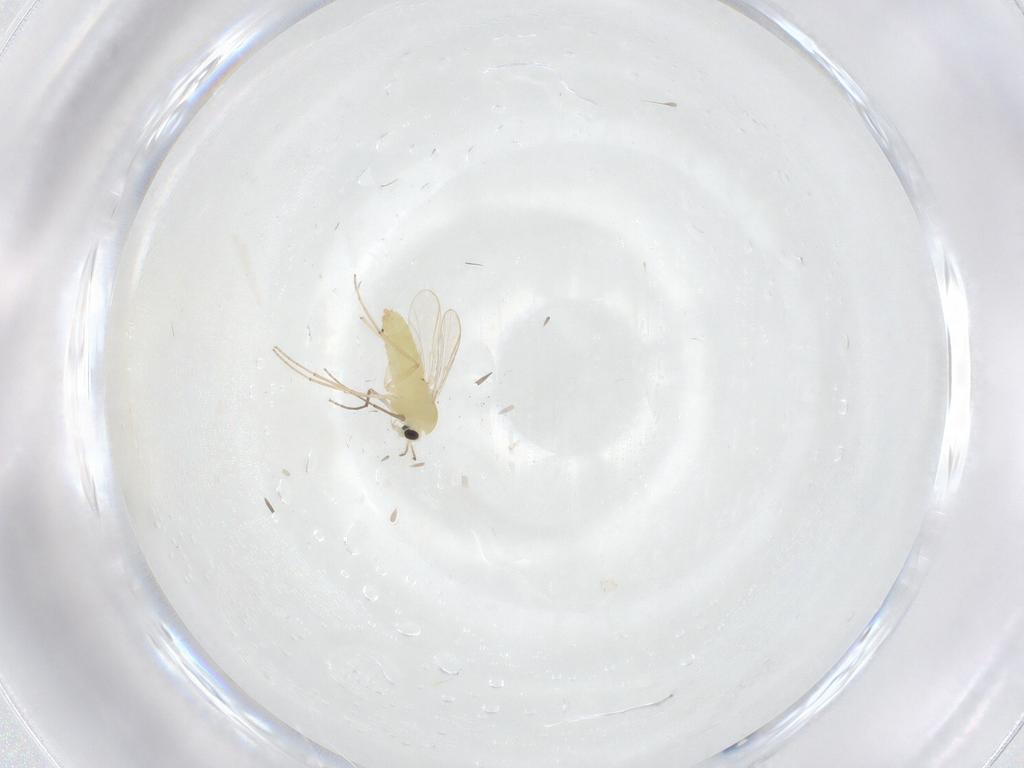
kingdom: Animalia
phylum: Arthropoda
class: Insecta
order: Diptera
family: Chironomidae
